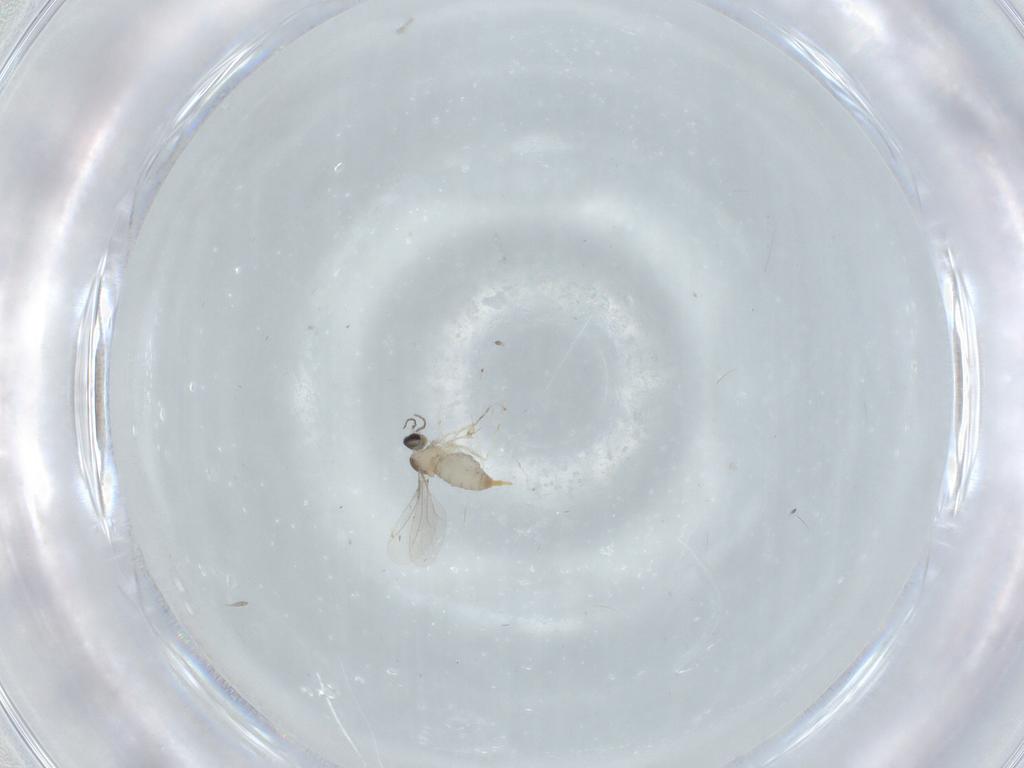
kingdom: Animalia
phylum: Arthropoda
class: Insecta
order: Diptera
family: Cecidomyiidae
